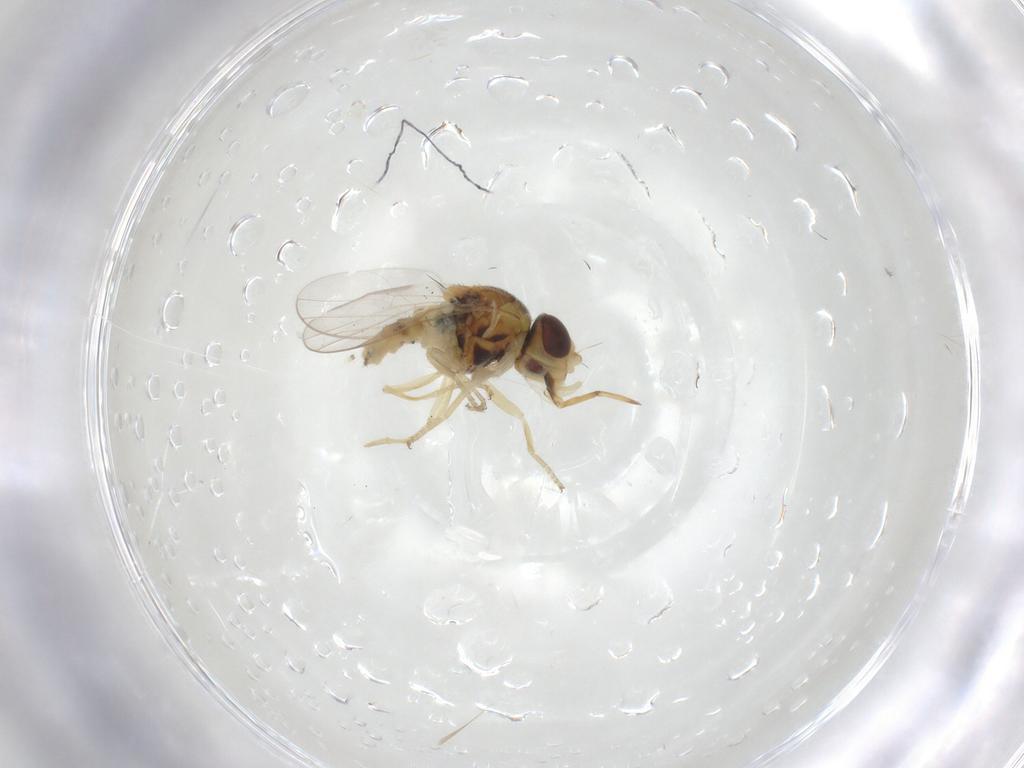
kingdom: Animalia
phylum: Arthropoda
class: Insecta
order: Diptera
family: Chloropidae
